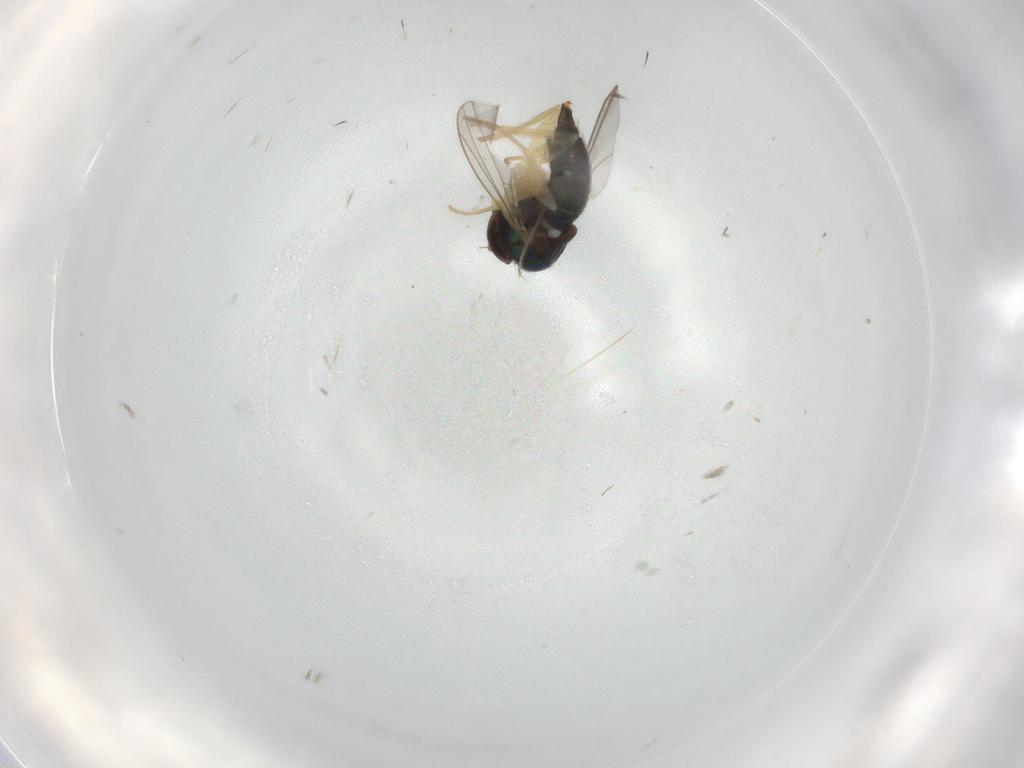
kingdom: Animalia
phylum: Arthropoda
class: Insecta
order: Diptera
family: Dolichopodidae
